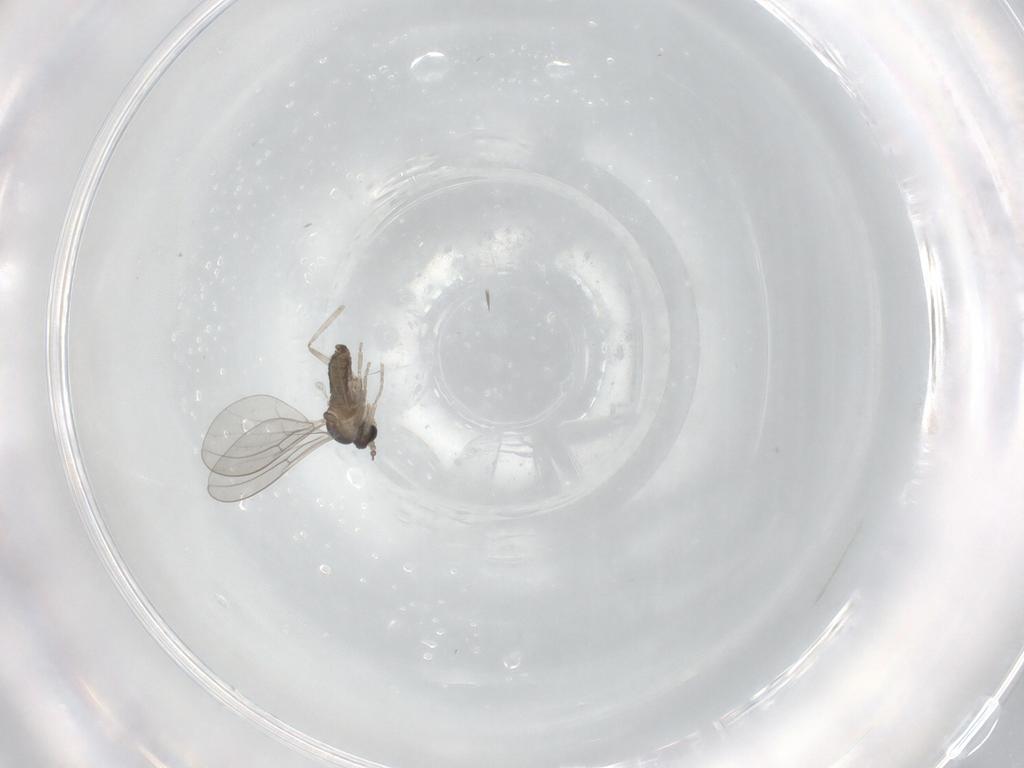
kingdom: Animalia
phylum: Arthropoda
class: Insecta
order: Diptera
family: Cecidomyiidae
